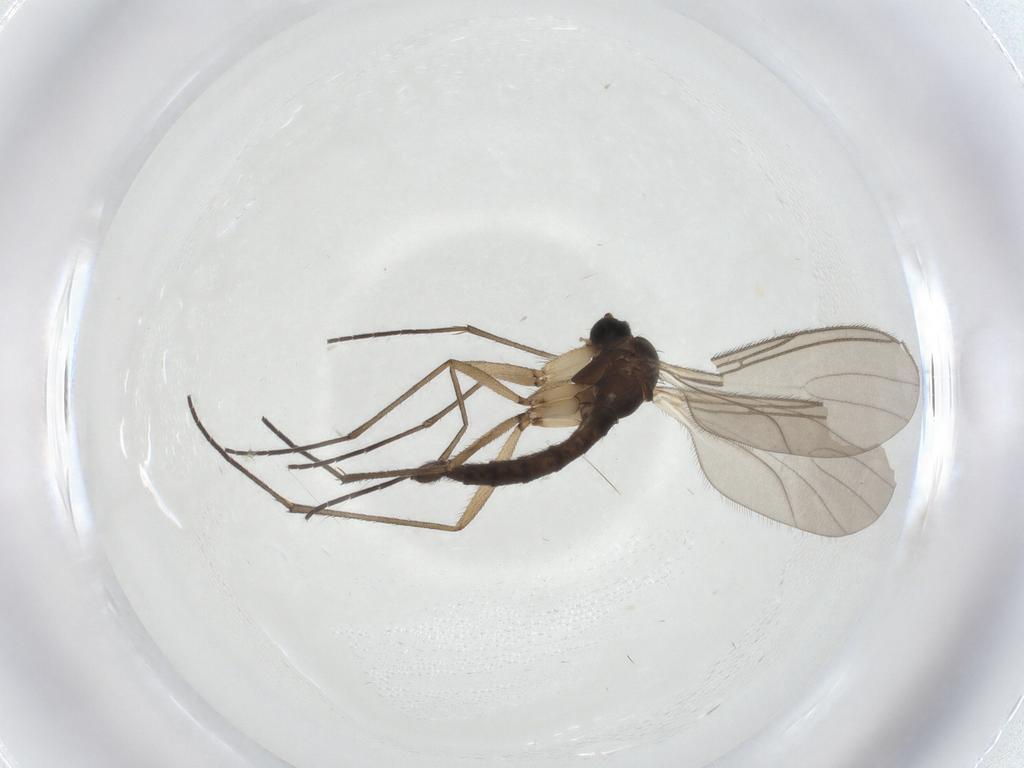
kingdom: Animalia
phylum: Arthropoda
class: Insecta
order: Diptera
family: Sciaridae
